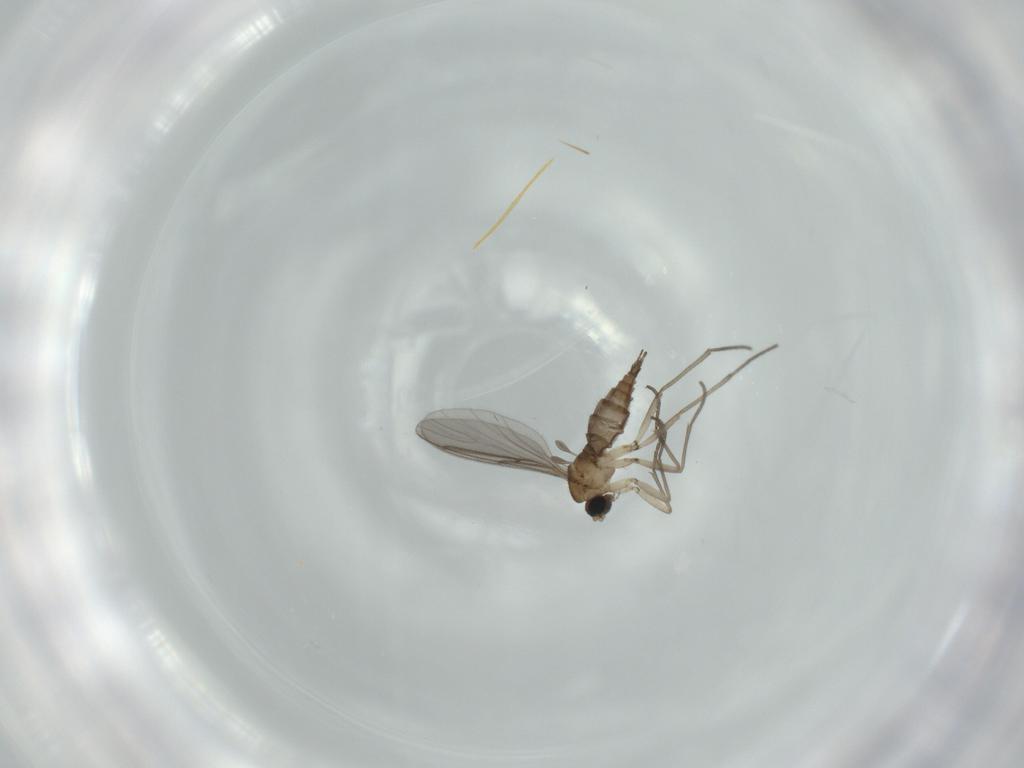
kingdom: Animalia
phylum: Arthropoda
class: Insecta
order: Diptera
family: Sciaridae
